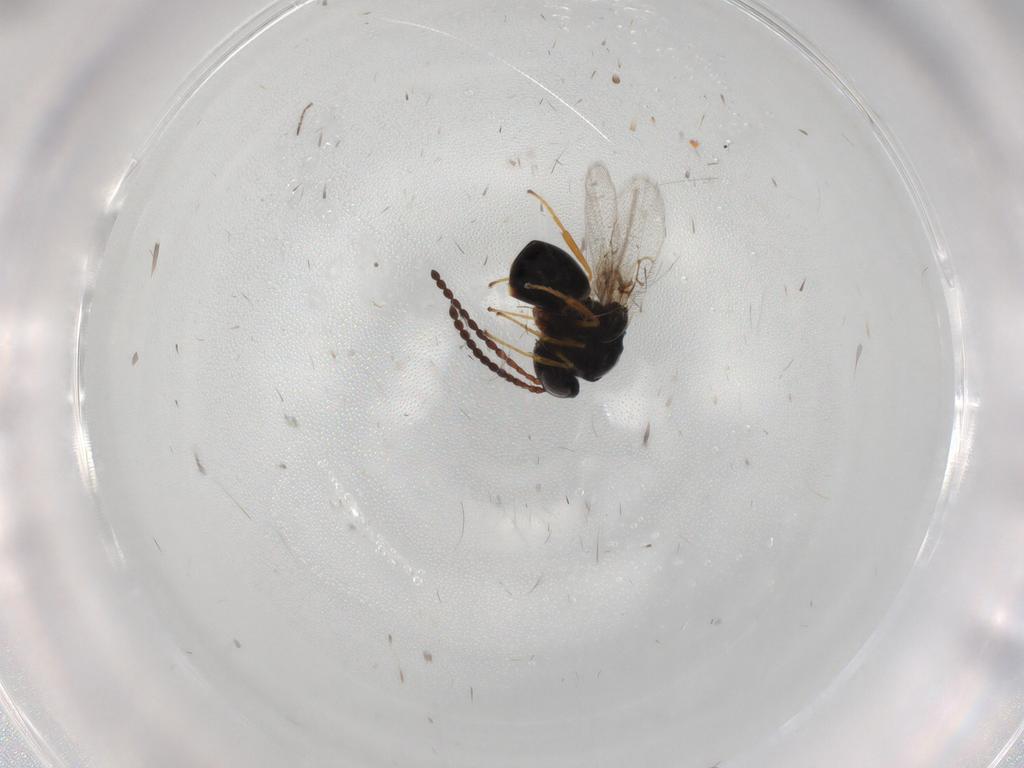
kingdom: Animalia
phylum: Arthropoda
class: Insecta
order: Hymenoptera
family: Figitidae
